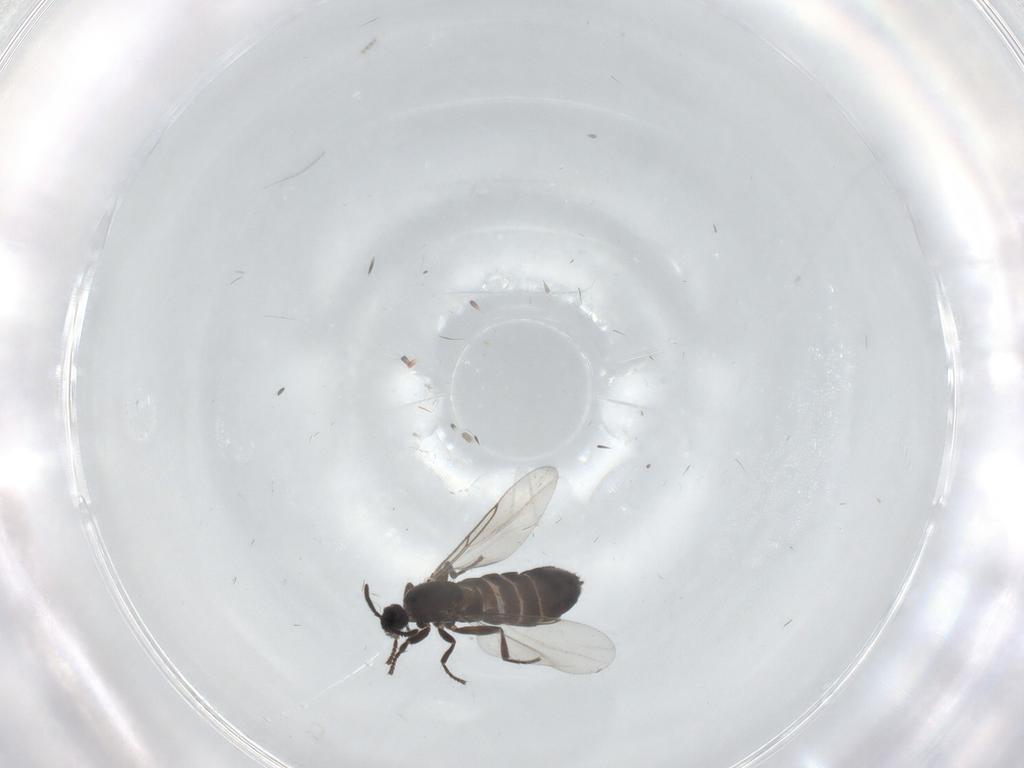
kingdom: Animalia
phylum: Arthropoda
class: Insecta
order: Diptera
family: Scatopsidae
